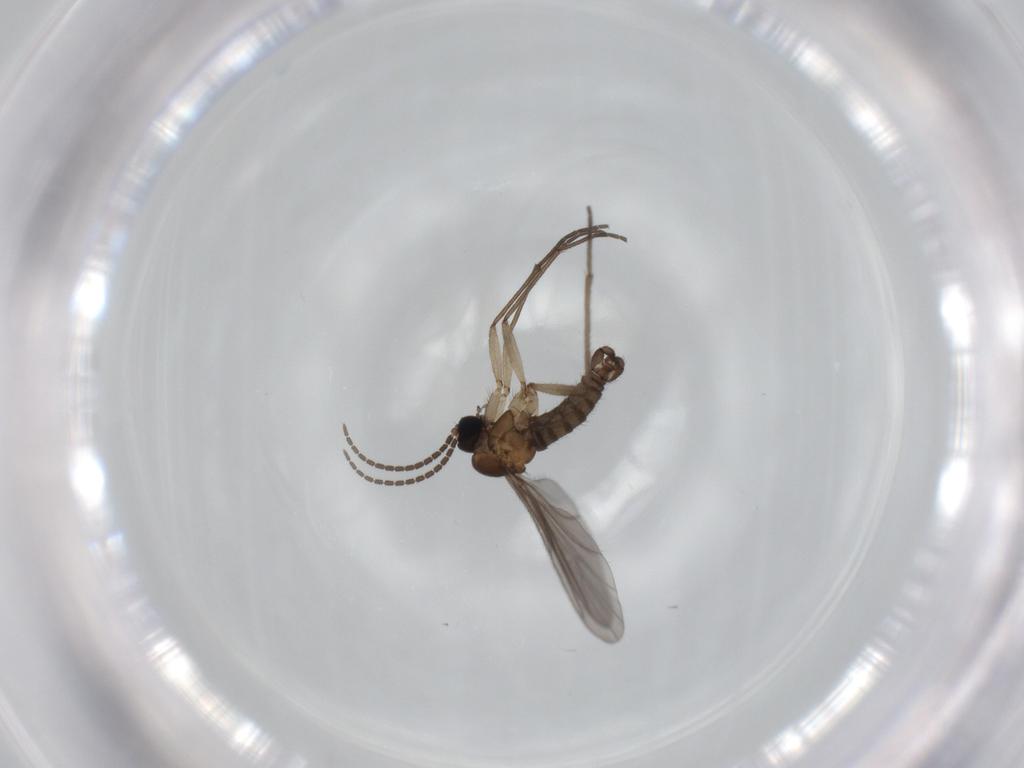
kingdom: Animalia
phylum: Arthropoda
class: Insecta
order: Diptera
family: Sciaridae
